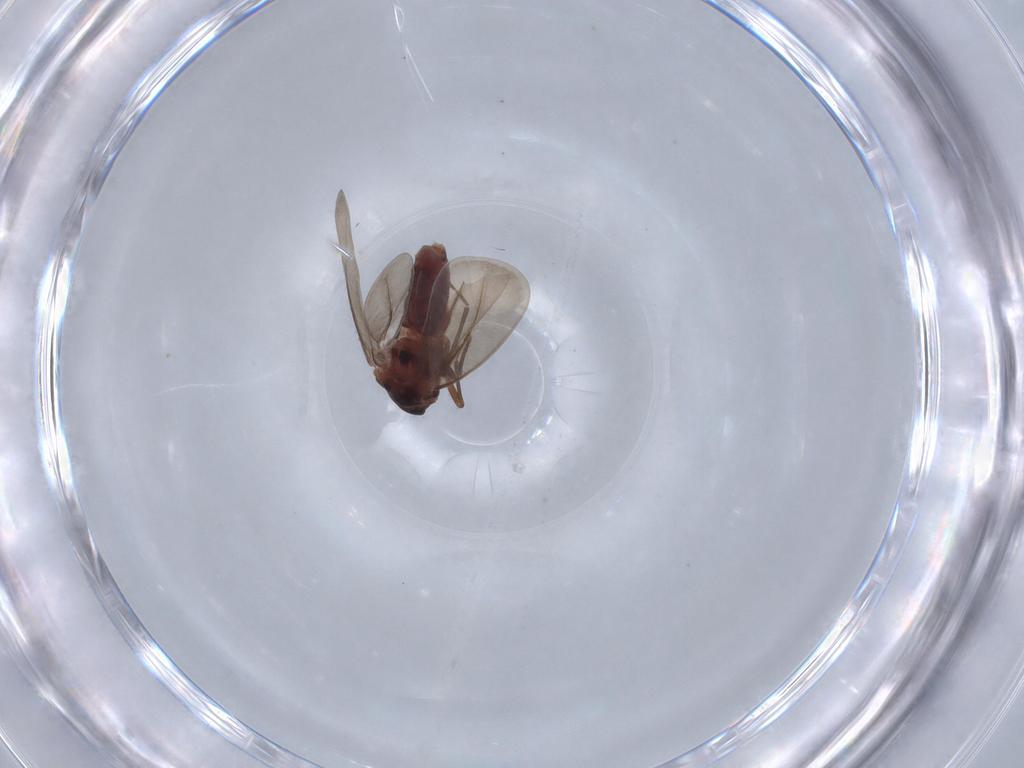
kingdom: Animalia
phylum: Arthropoda
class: Insecta
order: Hemiptera
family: Aleyrodidae
